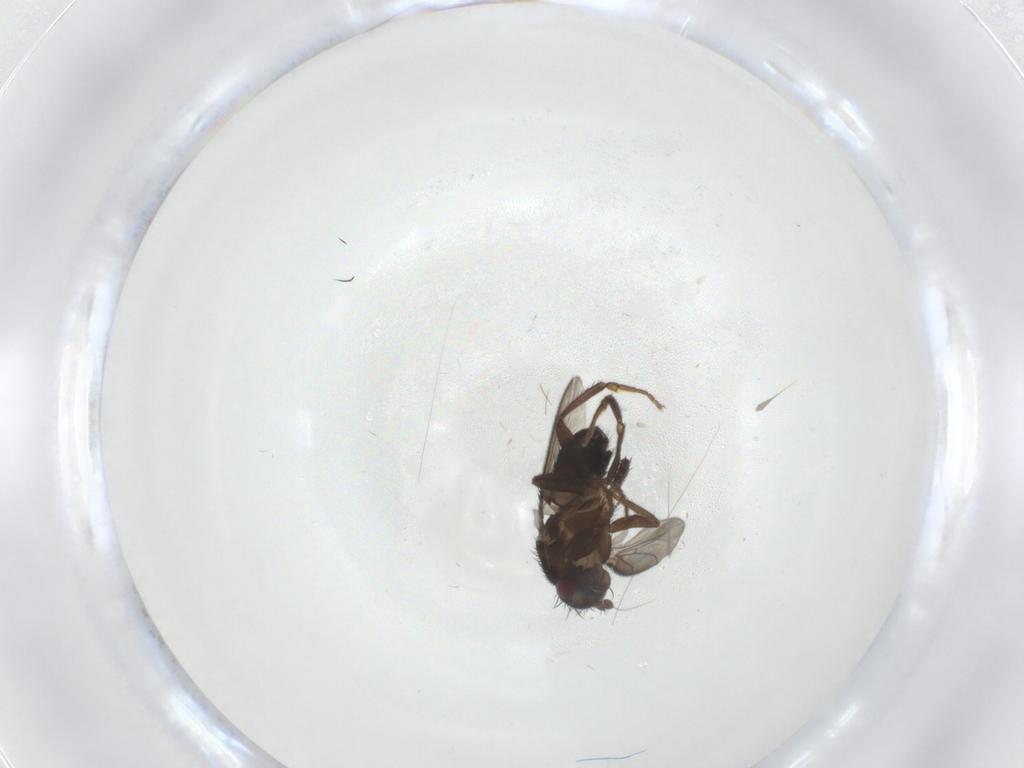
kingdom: Animalia
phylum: Arthropoda
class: Insecta
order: Diptera
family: Sphaeroceridae
